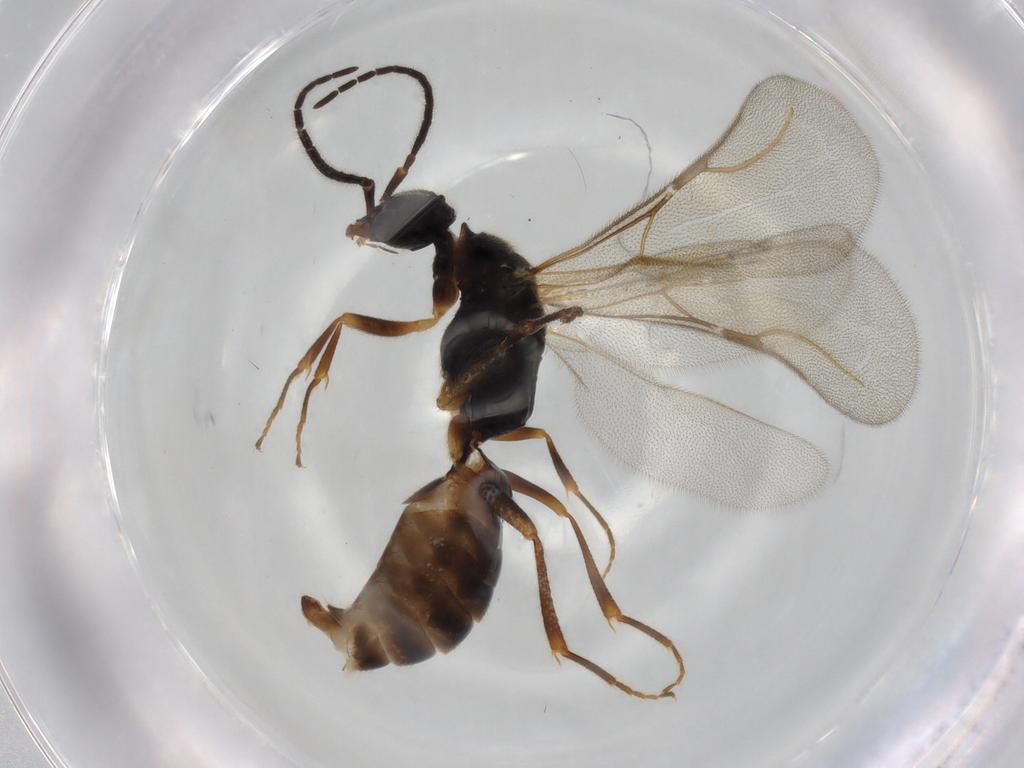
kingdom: Animalia
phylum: Arthropoda
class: Insecta
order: Hymenoptera
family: Bethylidae
